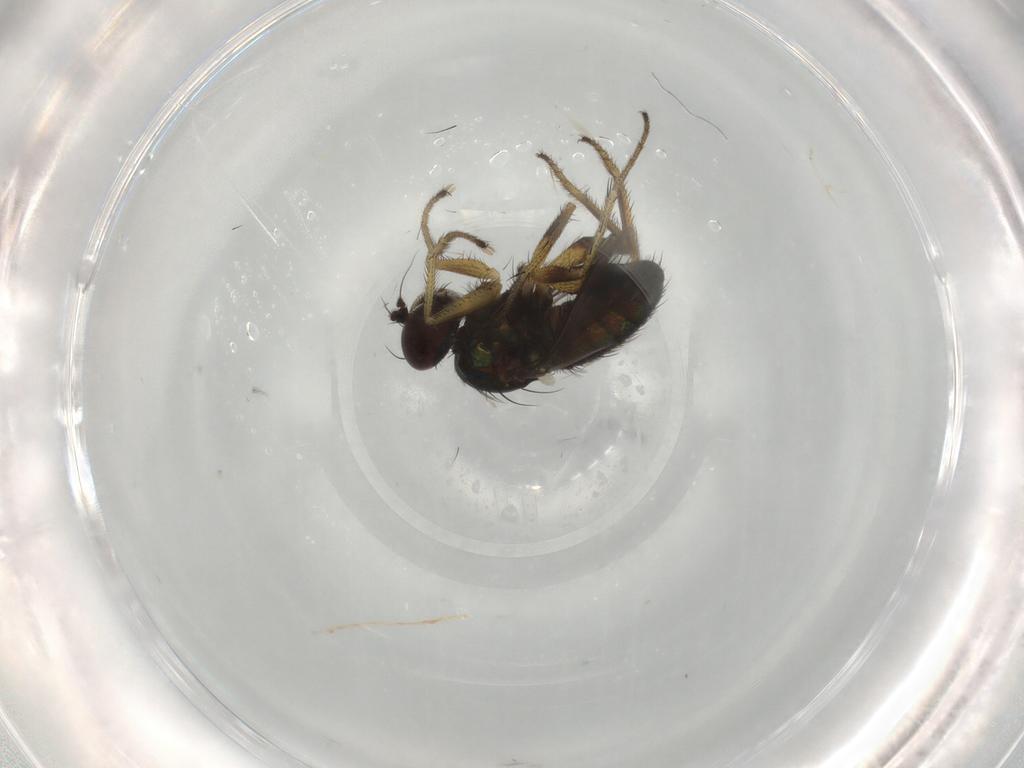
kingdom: Animalia
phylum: Arthropoda
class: Insecta
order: Diptera
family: Dolichopodidae
